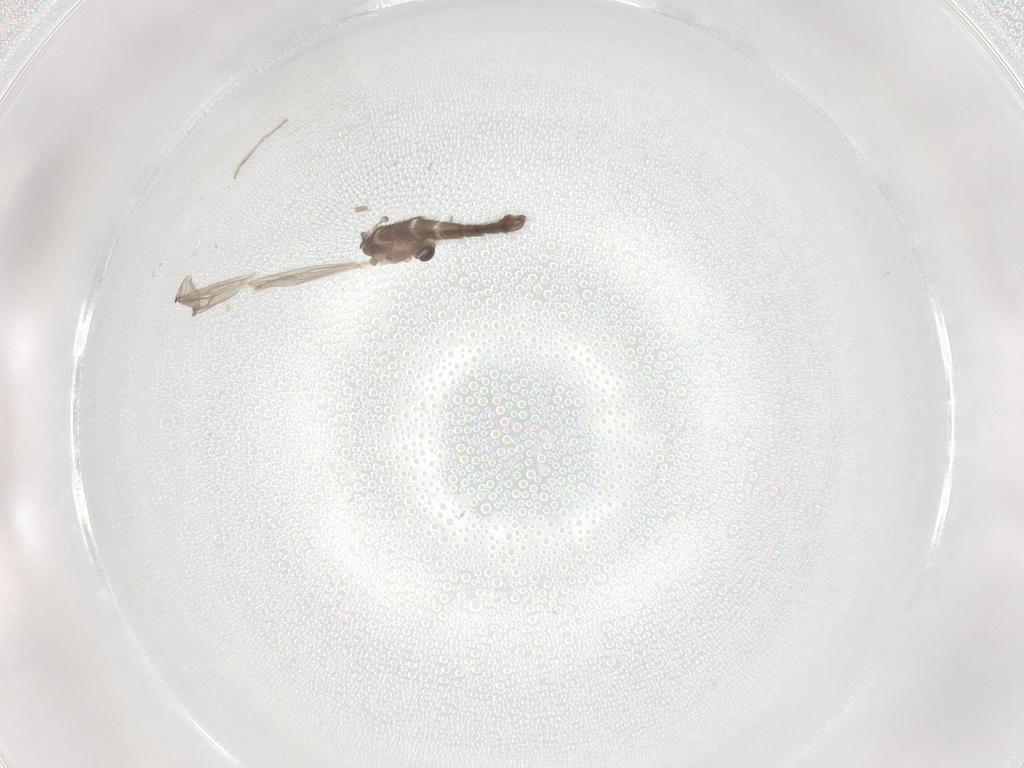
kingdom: Animalia
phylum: Arthropoda
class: Insecta
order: Diptera
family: Chironomidae
